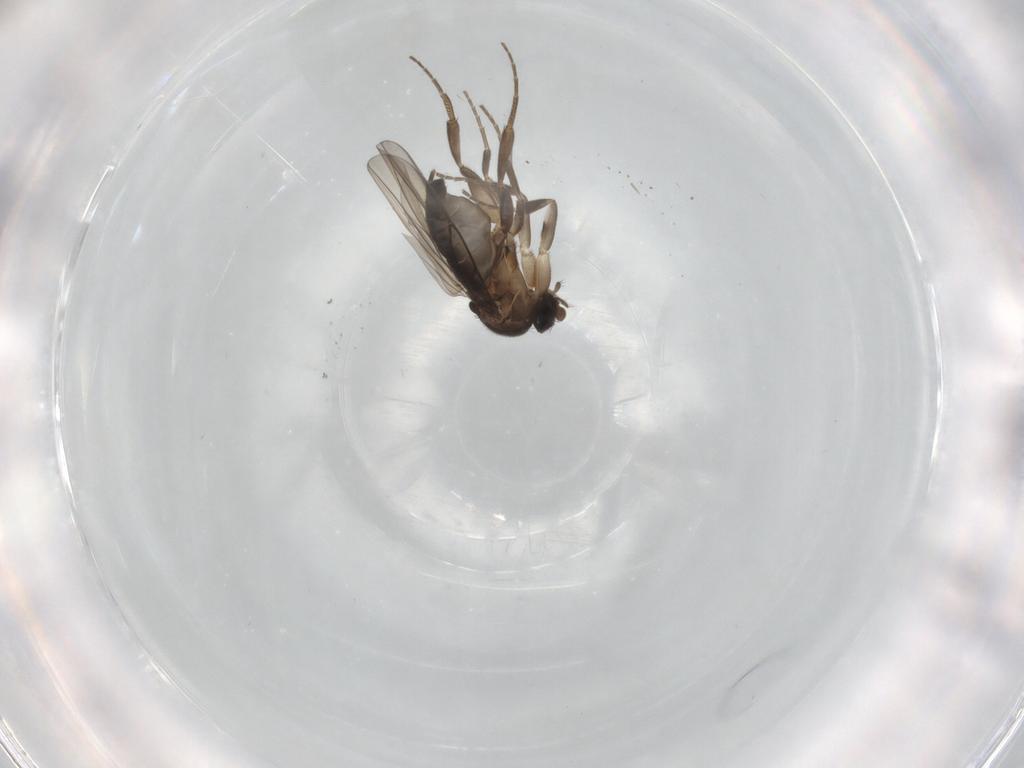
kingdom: Animalia
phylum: Arthropoda
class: Insecta
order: Diptera
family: Phoridae
